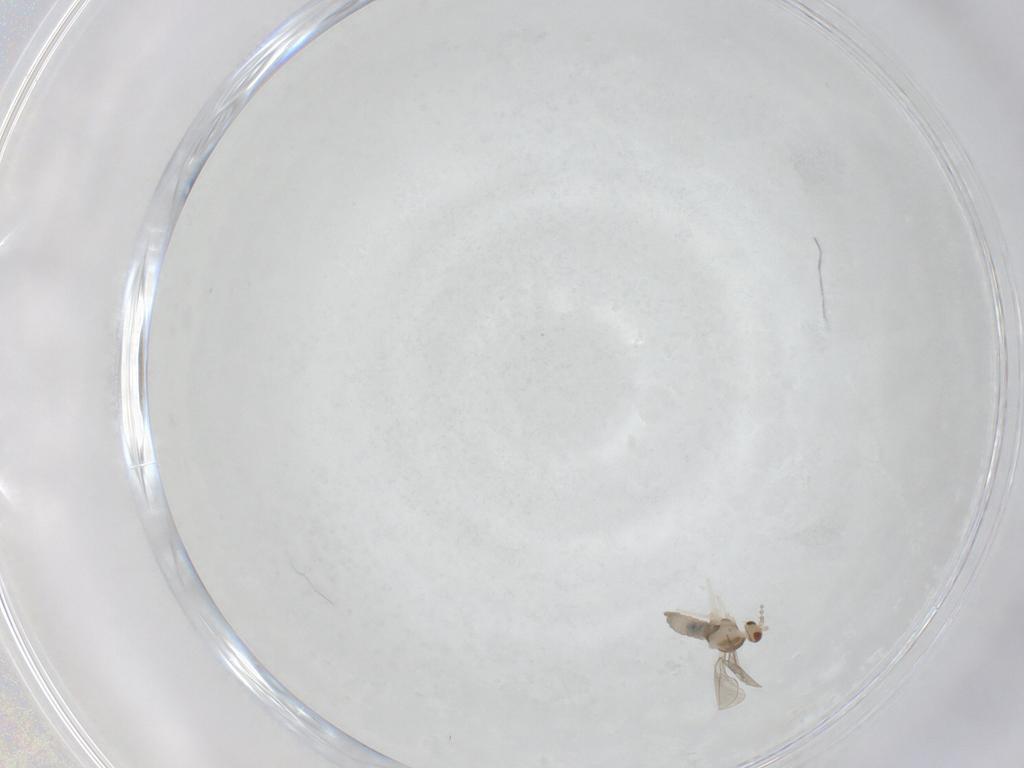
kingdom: Animalia
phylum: Arthropoda
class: Insecta
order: Diptera
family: Cecidomyiidae
